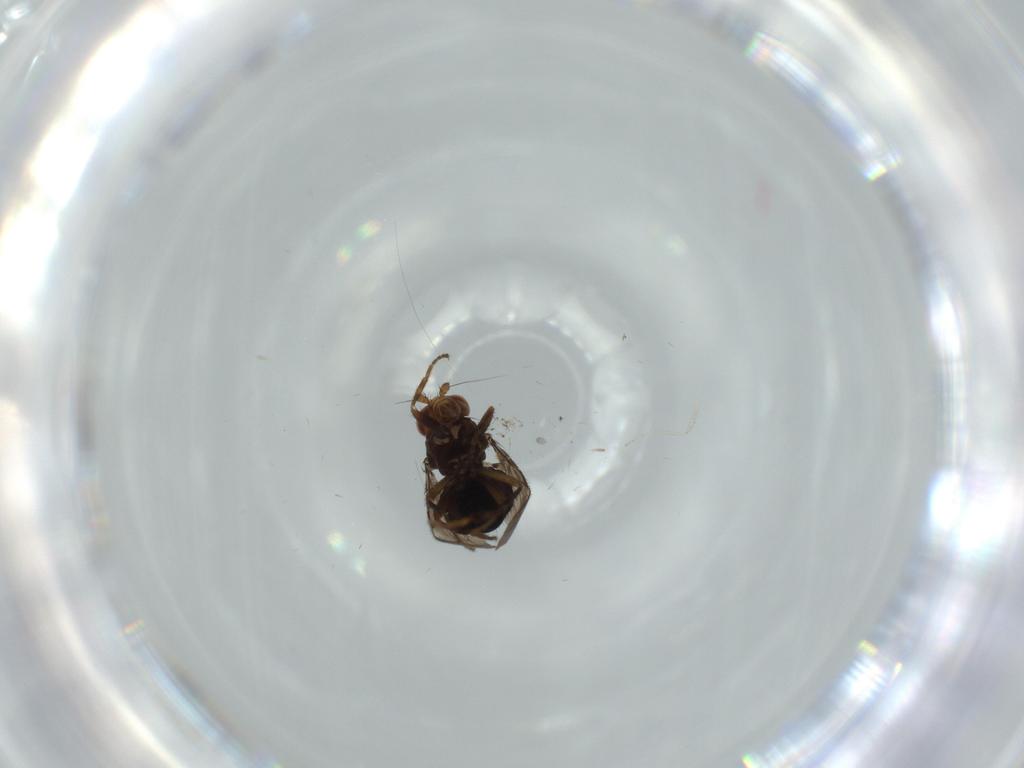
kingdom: Animalia
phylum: Arthropoda
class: Insecta
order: Diptera
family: Sphaeroceridae
